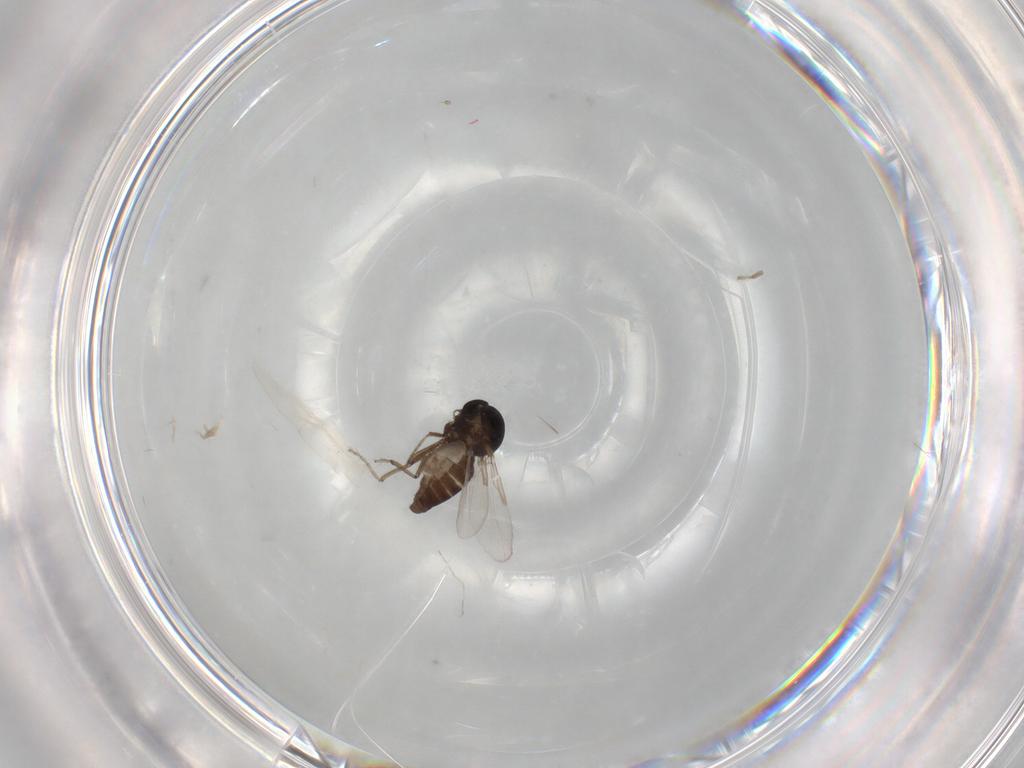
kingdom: Animalia
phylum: Arthropoda
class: Insecta
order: Diptera
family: Ceratopogonidae
